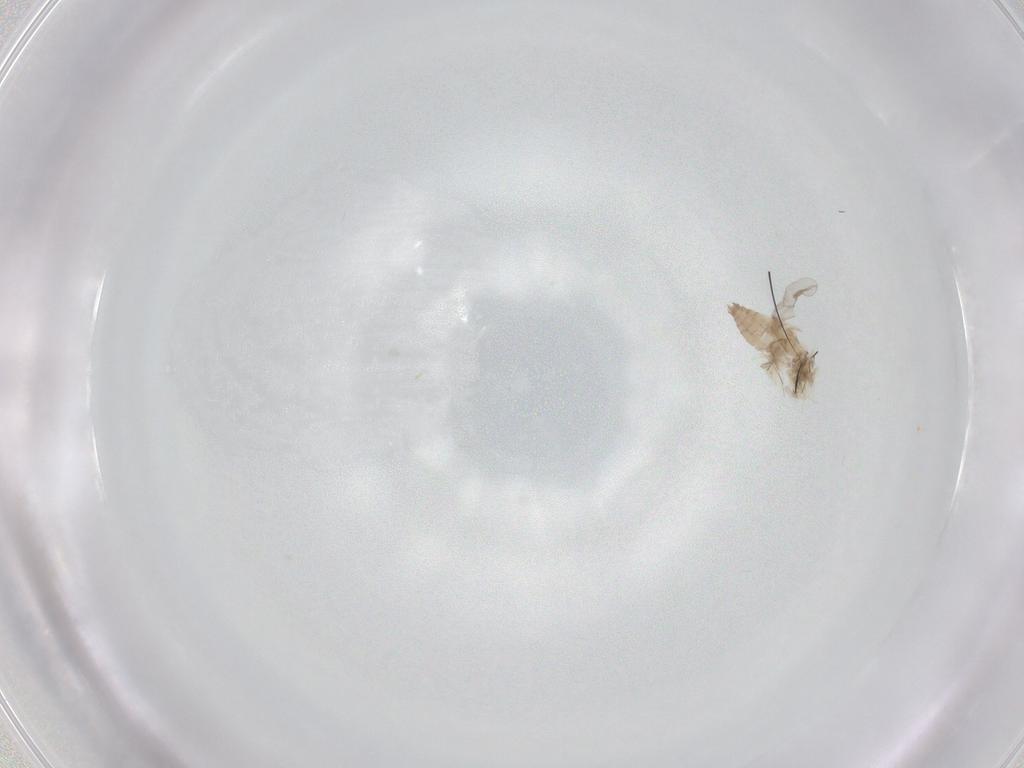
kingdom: Animalia
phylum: Arthropoda
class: Insecta
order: Diptera
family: Muscidae
